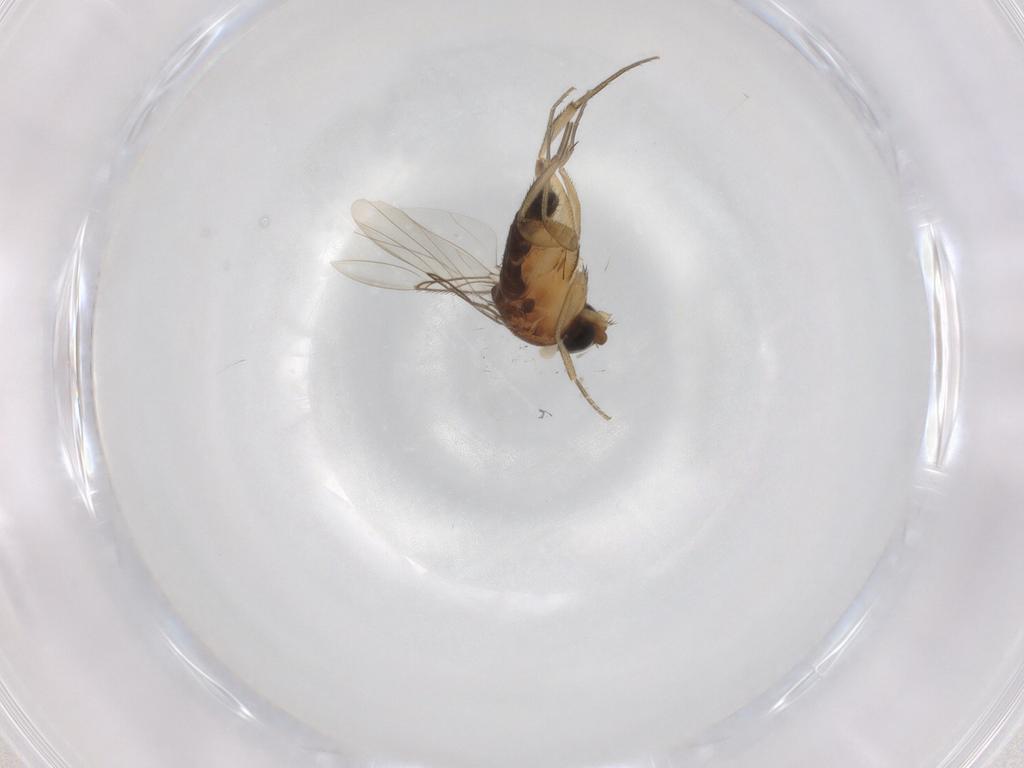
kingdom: Animalia
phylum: Arthropoda
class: Insecta
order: Diptera
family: Phoridae
